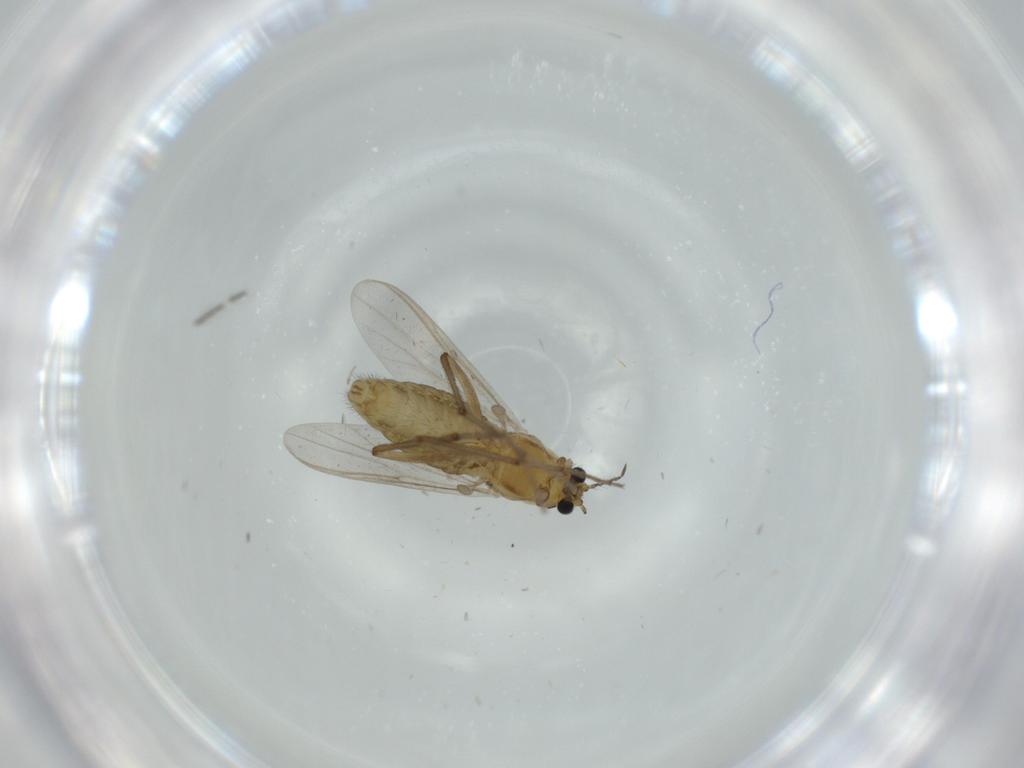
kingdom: Animalia
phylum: Arthropoda
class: Insecta
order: Diptera
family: Chironomidae
